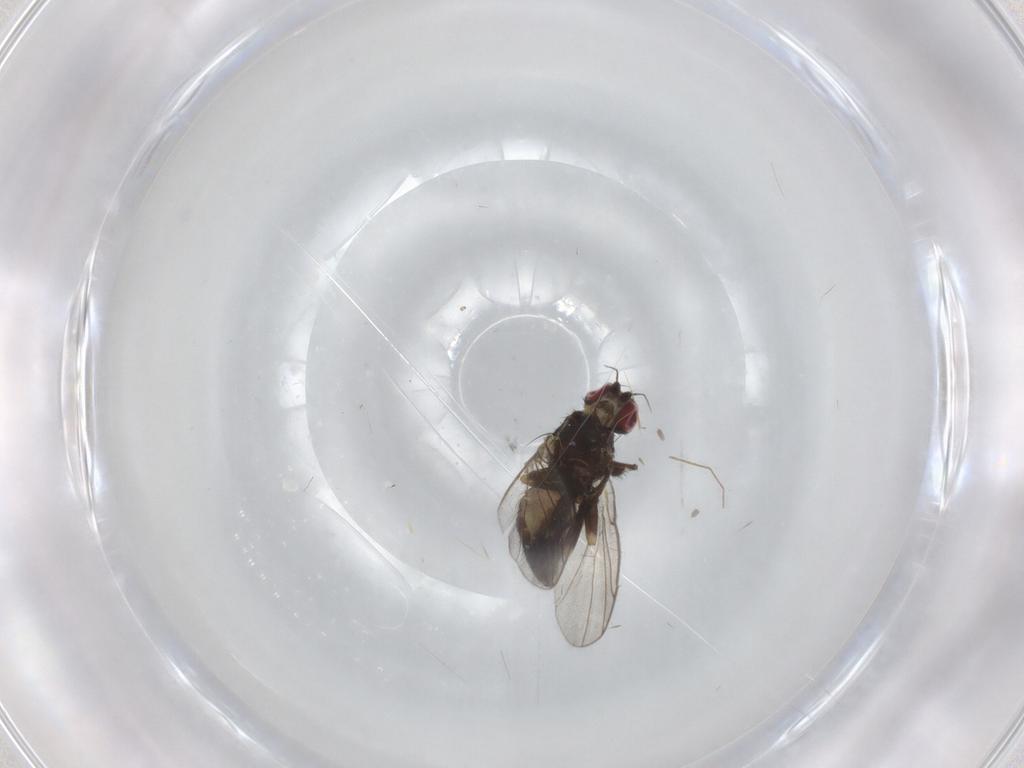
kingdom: Animalia
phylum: Arthropoda
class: Insecta
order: Diptera
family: Agromyzidae
